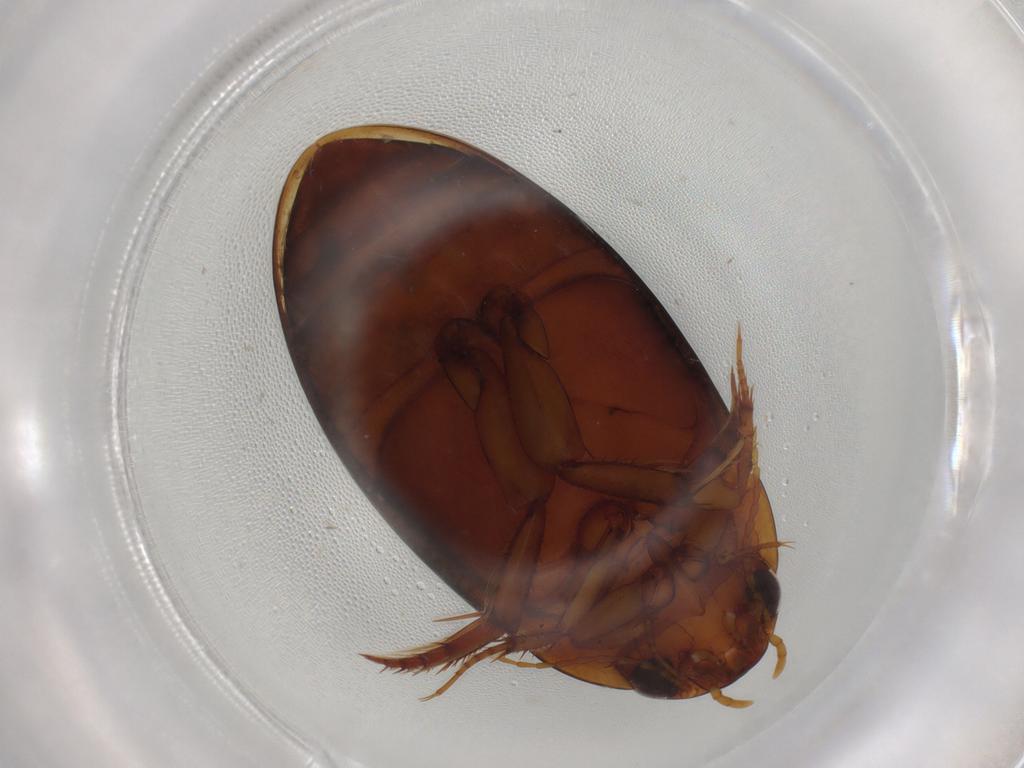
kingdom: Animalia
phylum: Arthropoda
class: Insecta
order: Coleoptera
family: Dytiscidae
